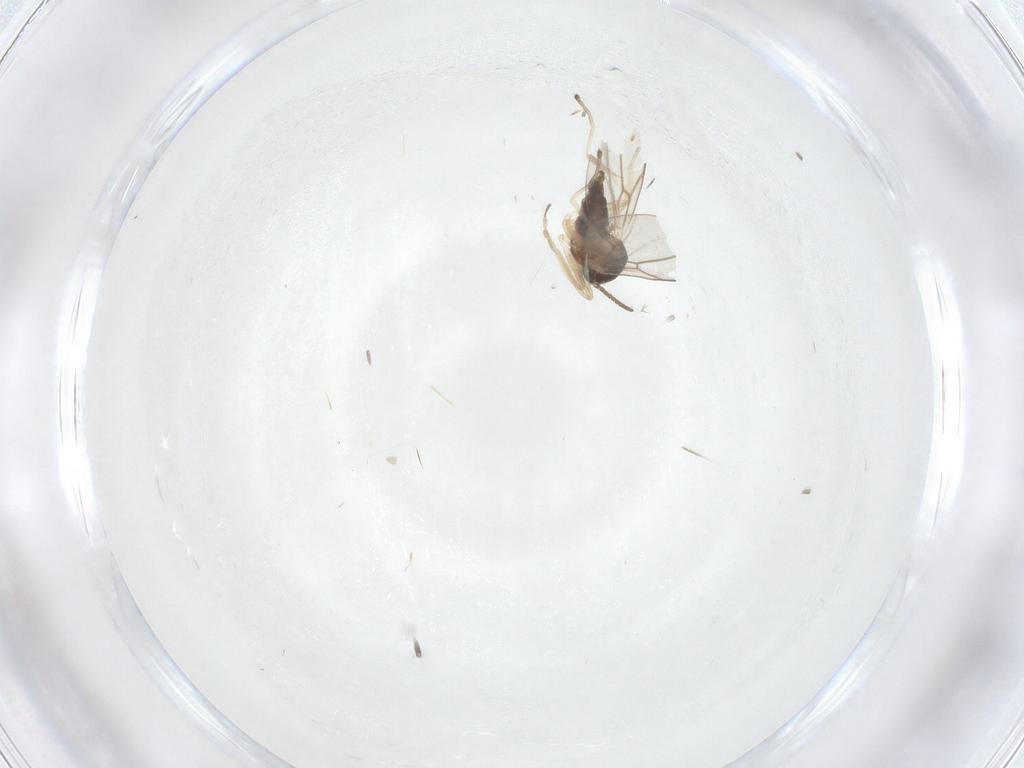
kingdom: Animalia
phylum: Arthropoda
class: Insecta
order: Diptera
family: Cecidomyiidae
